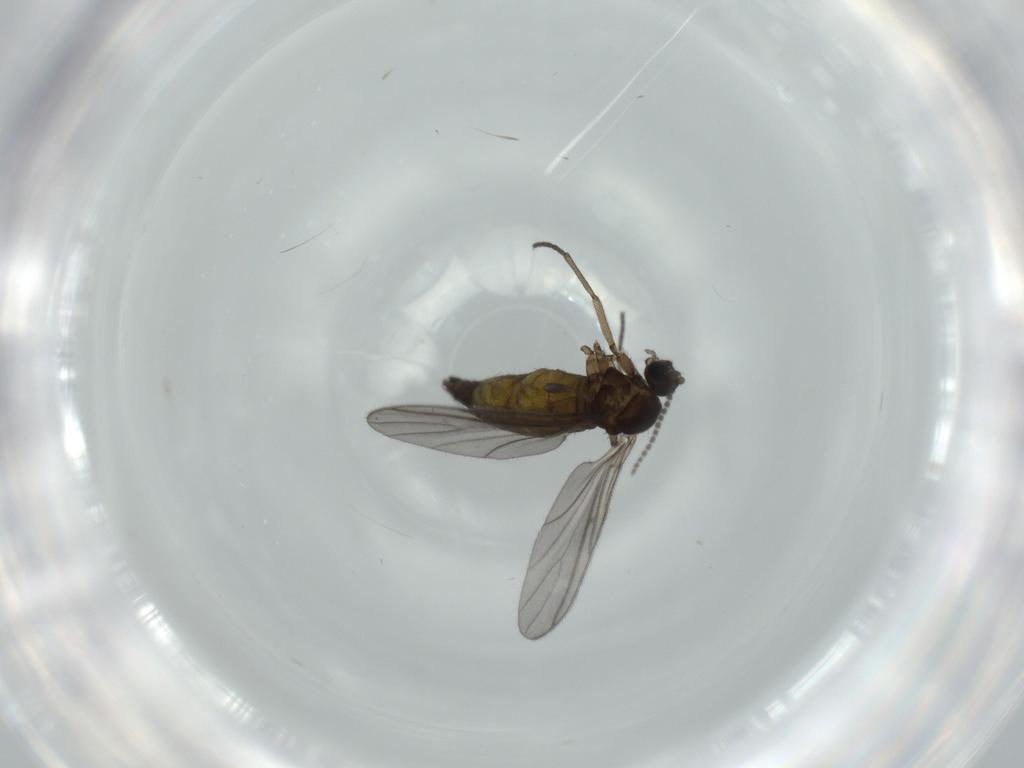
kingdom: Animalia
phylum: Arthropoda
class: Insecta
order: Diptera
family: Sciaridae
